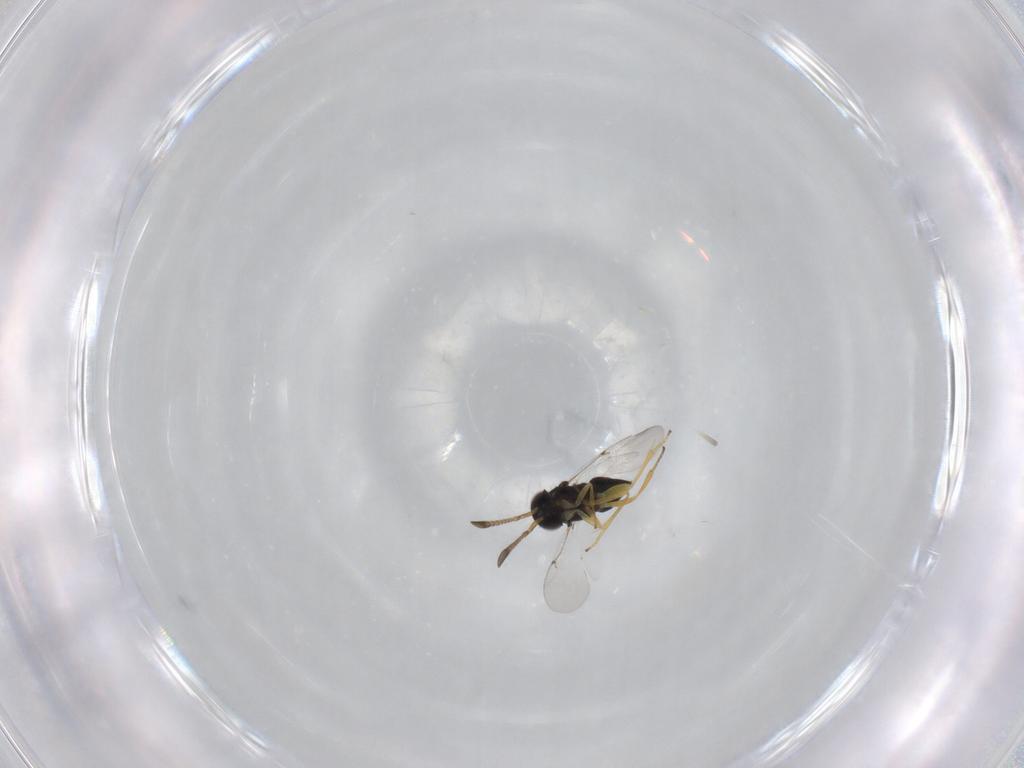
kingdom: Animalia
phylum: Arthropoda
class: Insecta
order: Hymenoptera
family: Encyrtidae
